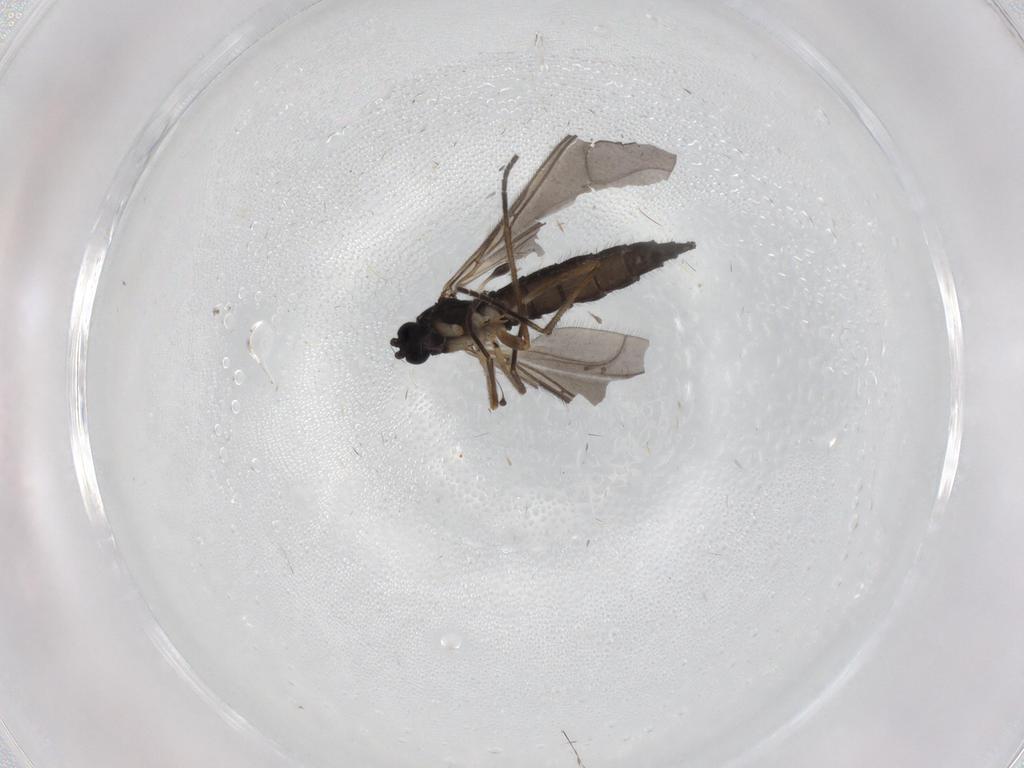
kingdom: Animalia
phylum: Arthropoda
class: Insecta
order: Diptera
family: Sciaridae
